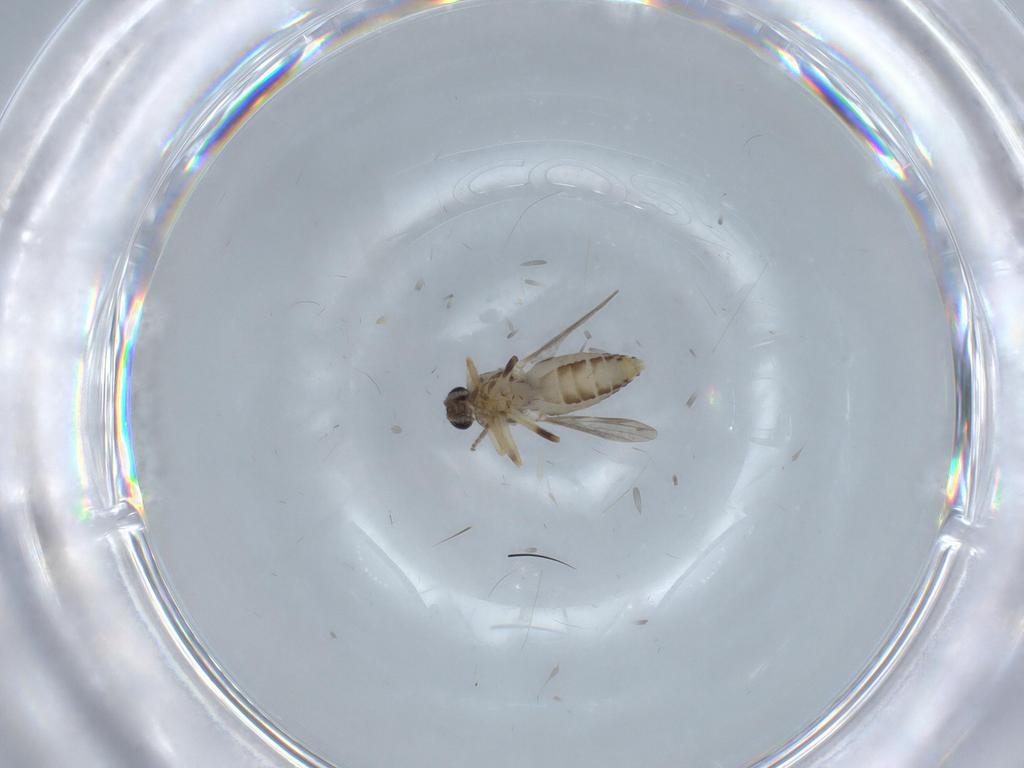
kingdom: Animalia
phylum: Arthropoda
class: Insecta
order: Diptera
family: Ceratopogonidae
